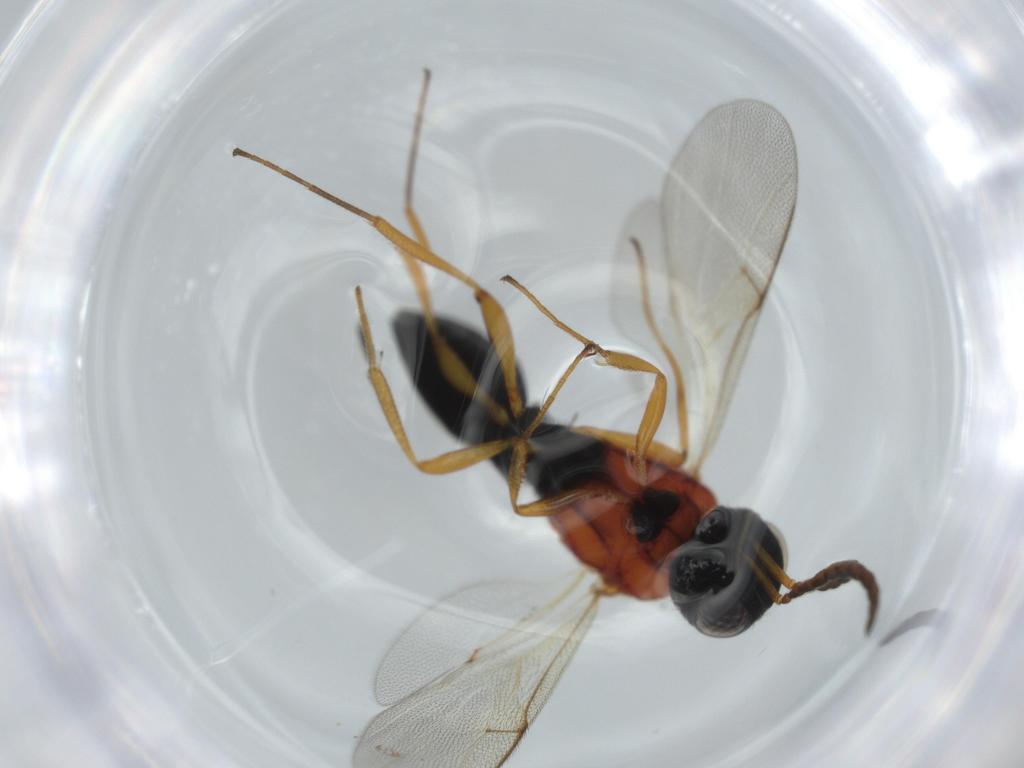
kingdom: Animalia
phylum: Arthropoda
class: Insecta
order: Hymenoptera
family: Scelionidae
